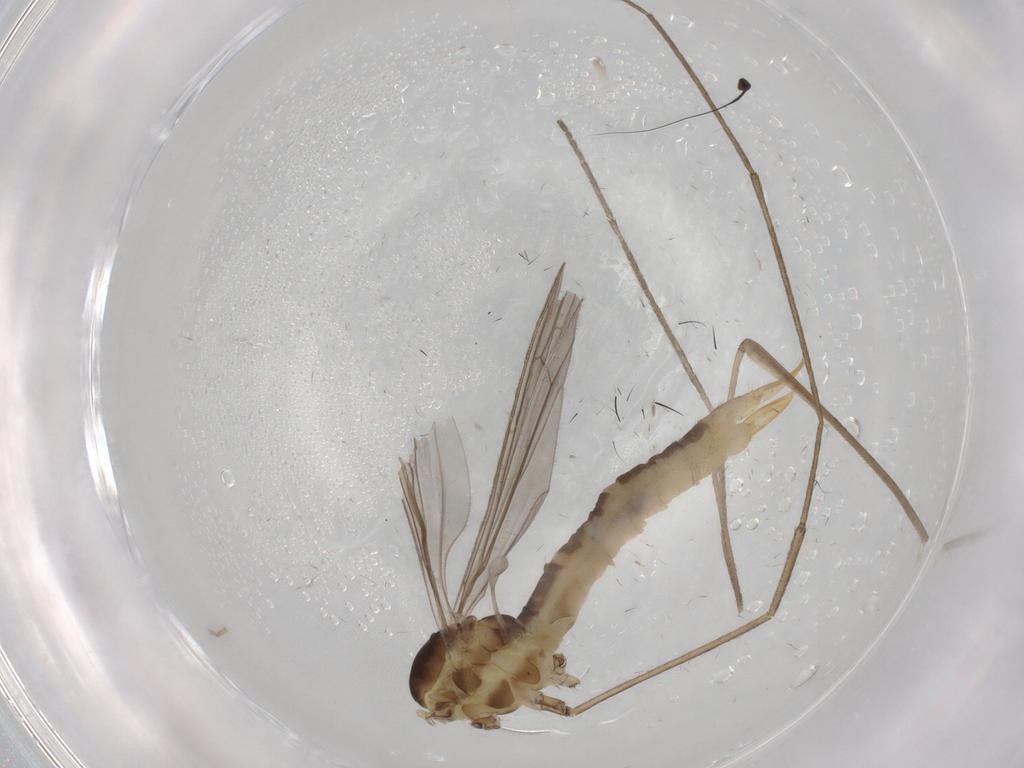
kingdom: Animalia
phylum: Arthropoda
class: Insecta
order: Diptera
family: Limoniidae
